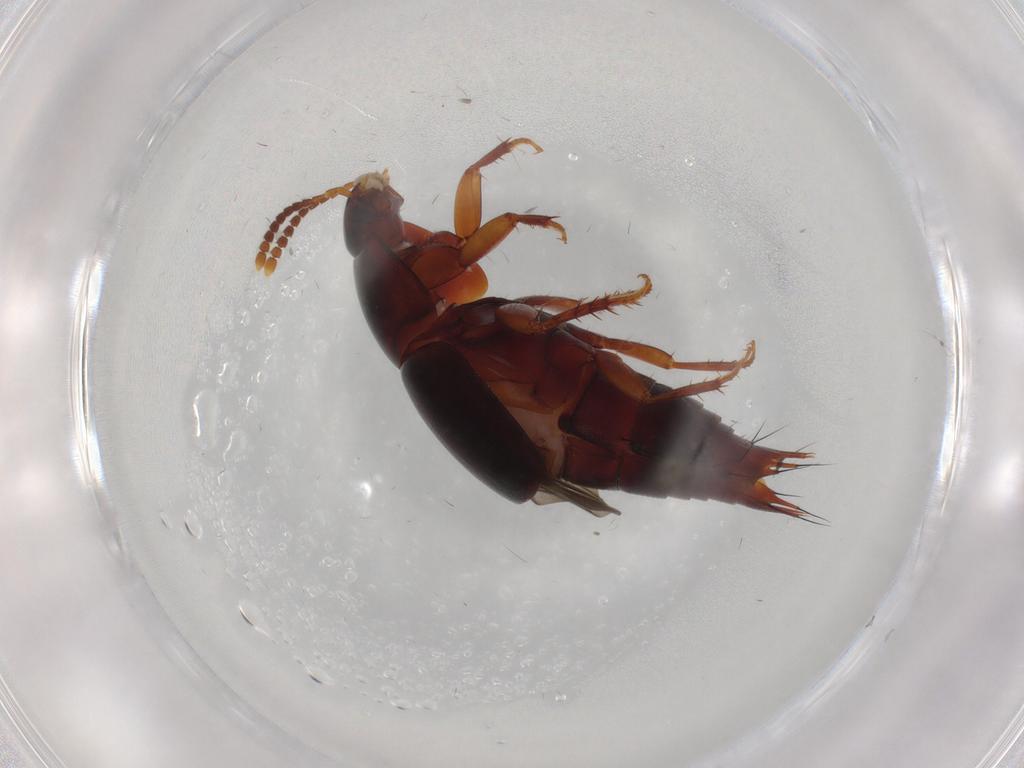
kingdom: Animalia
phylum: Arthropoda
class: Insecta
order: Coleoptera
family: Staphylinidae
